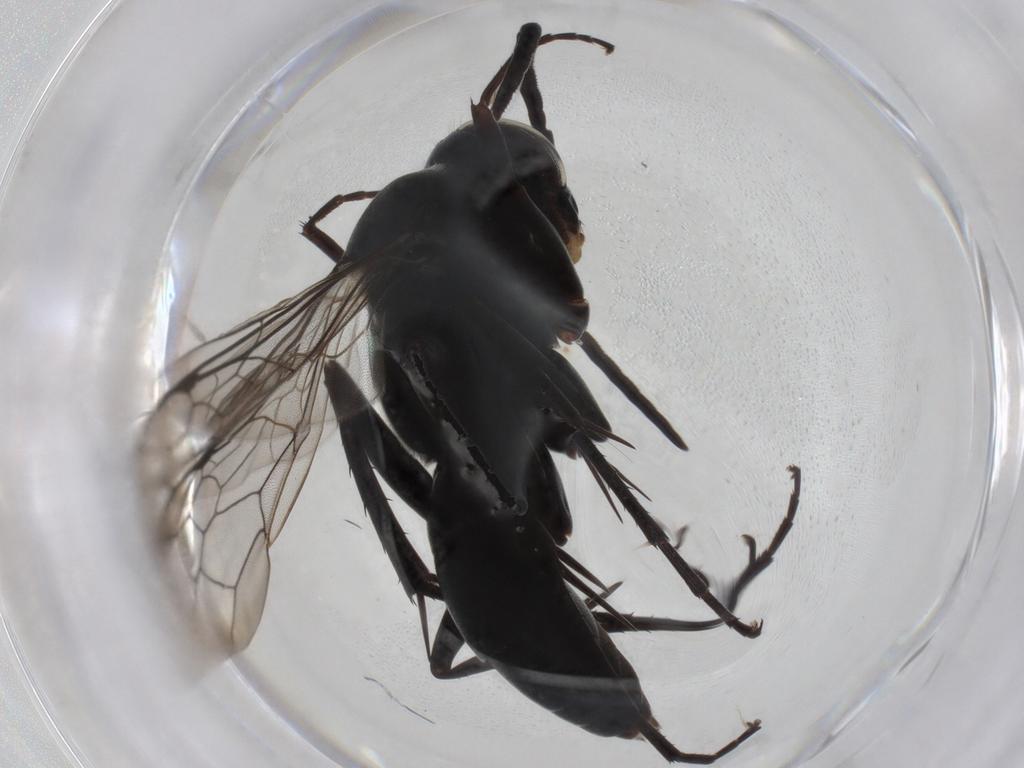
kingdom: Animalia
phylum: Arthropoda
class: Insecta
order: Hymenoptera
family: Pompilidae
